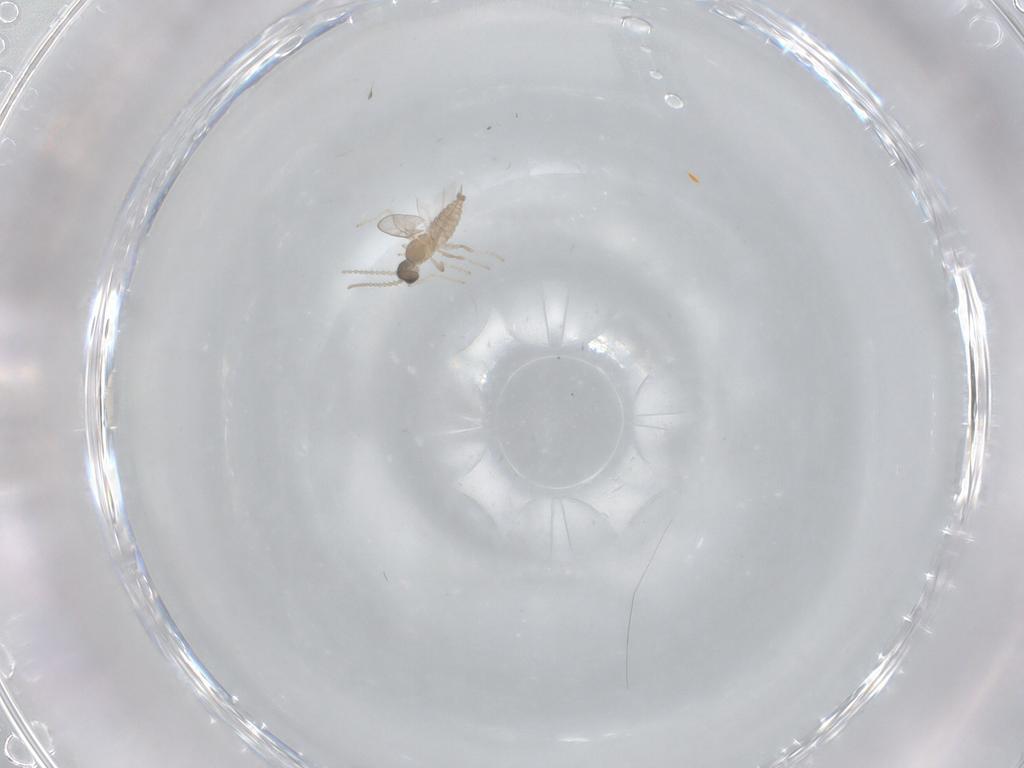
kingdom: Animalia
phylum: Arthropoda
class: Insecta
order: Diptera
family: Cecidomyiidae
